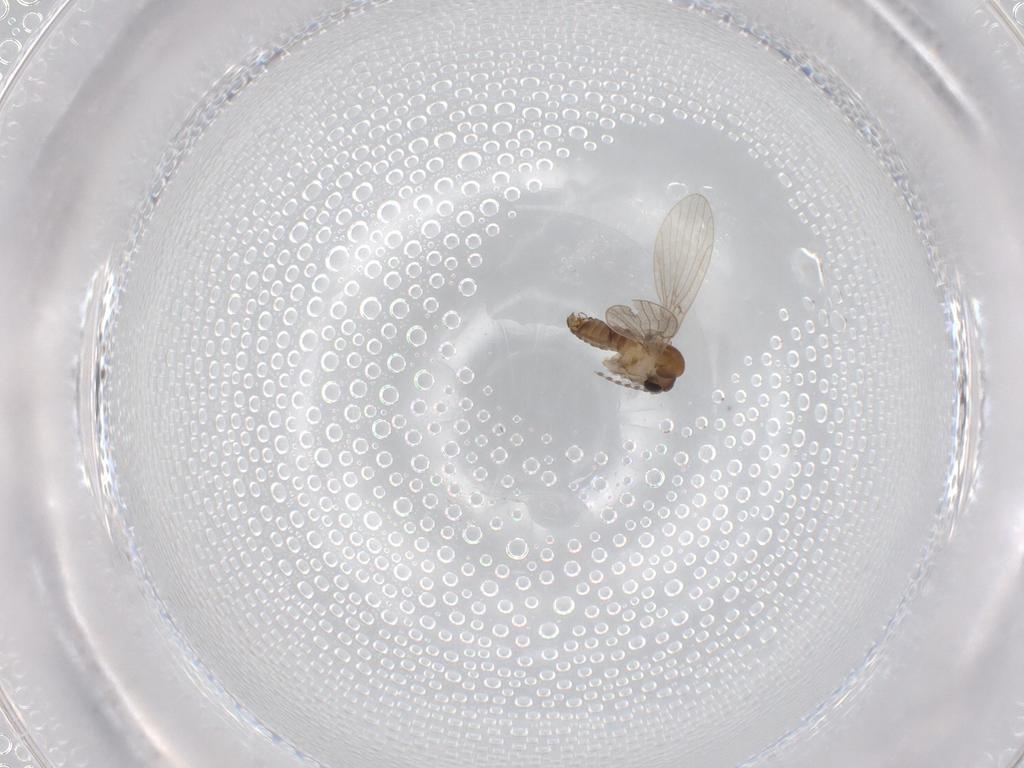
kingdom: Animalia
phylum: Arthropoda
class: Insecta
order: Diptera
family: Psychodidae
